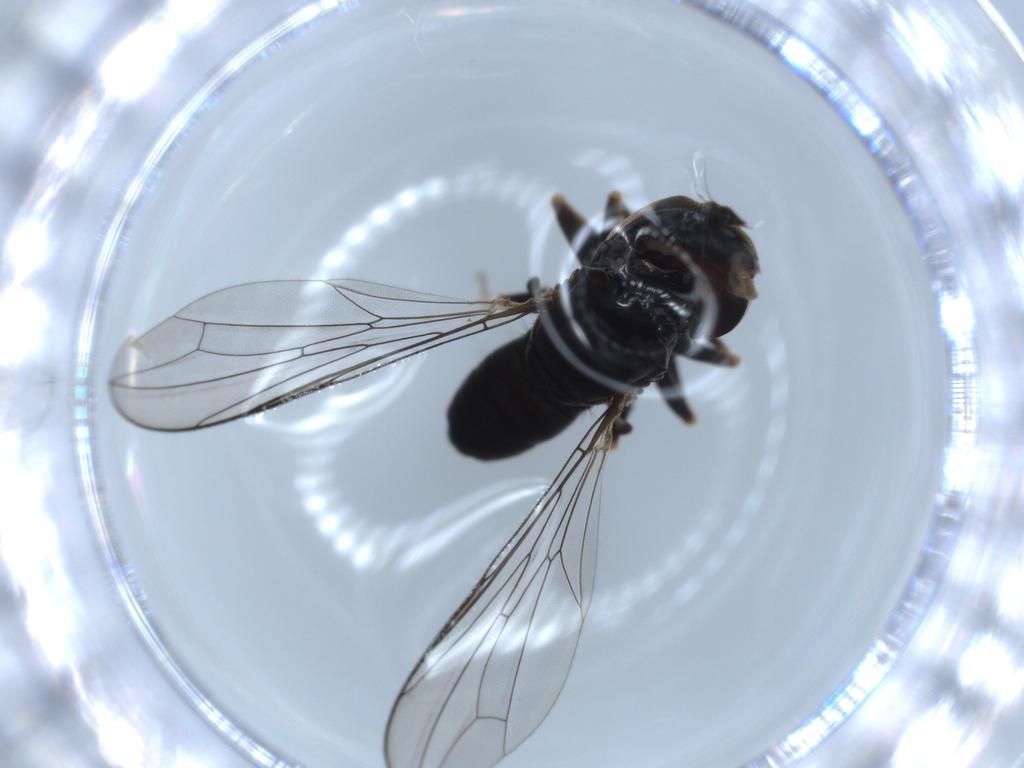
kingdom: Animalia
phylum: Arthropoda
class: Insecta
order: Diptera
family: Pipunculidae
